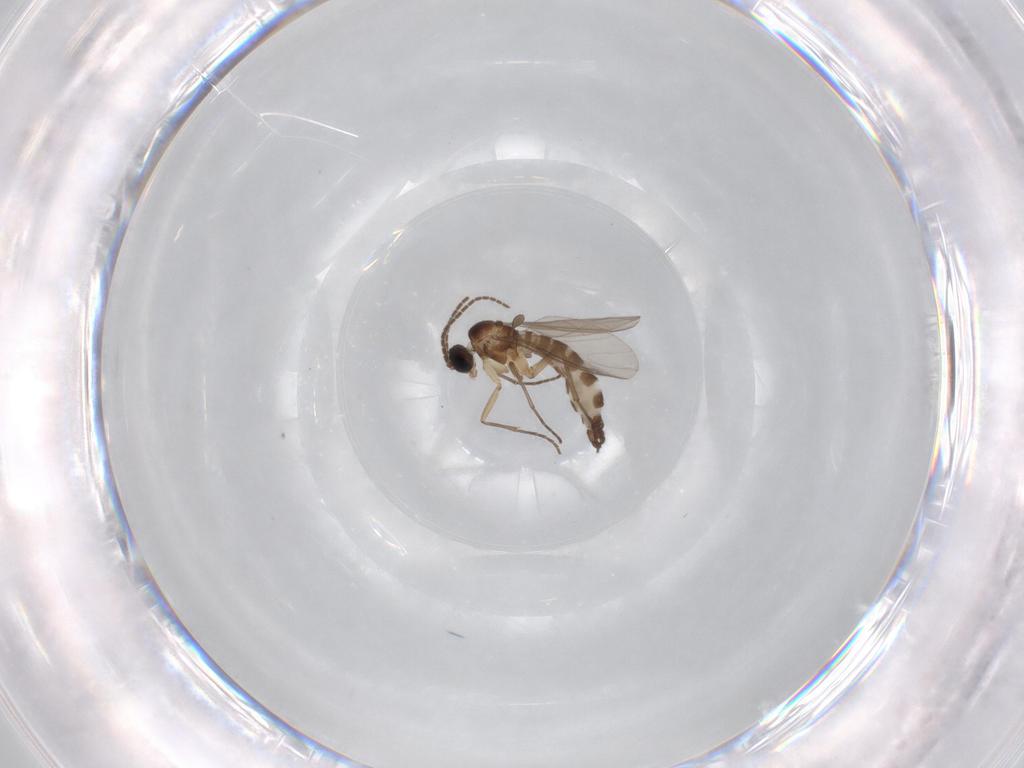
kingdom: Animalia
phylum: Arthropoda
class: Insecta
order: Diptera
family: Sciaridae
